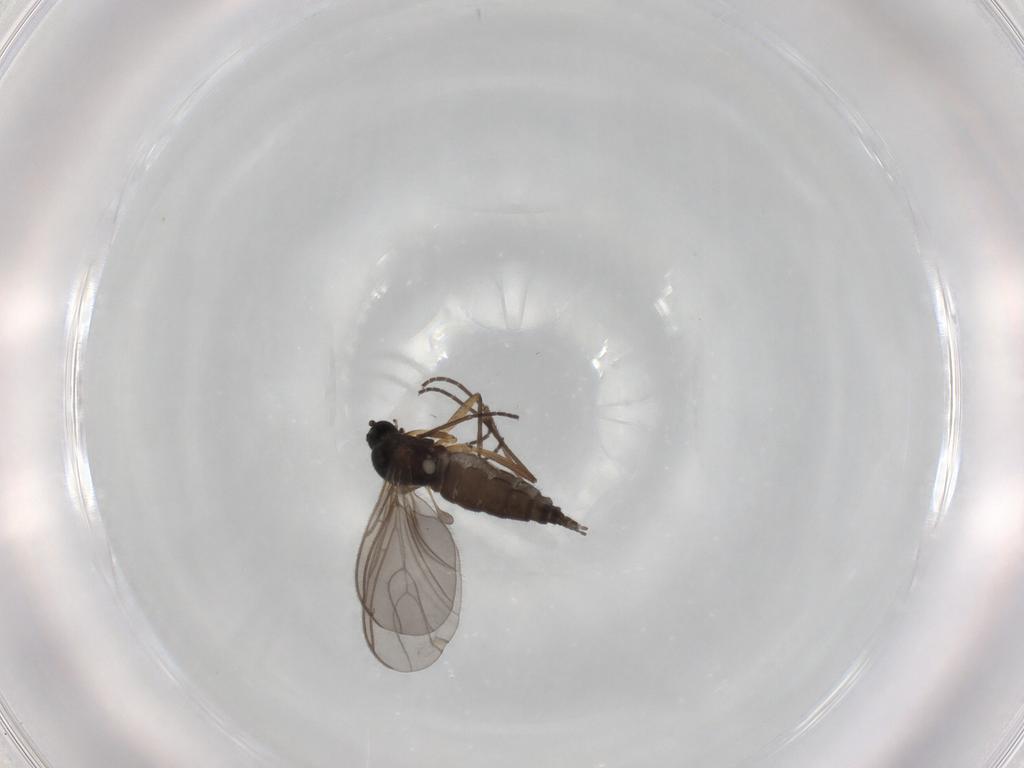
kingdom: Animalia
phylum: Arthropoda
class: Insecta
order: Diptera
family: Sciaridae
